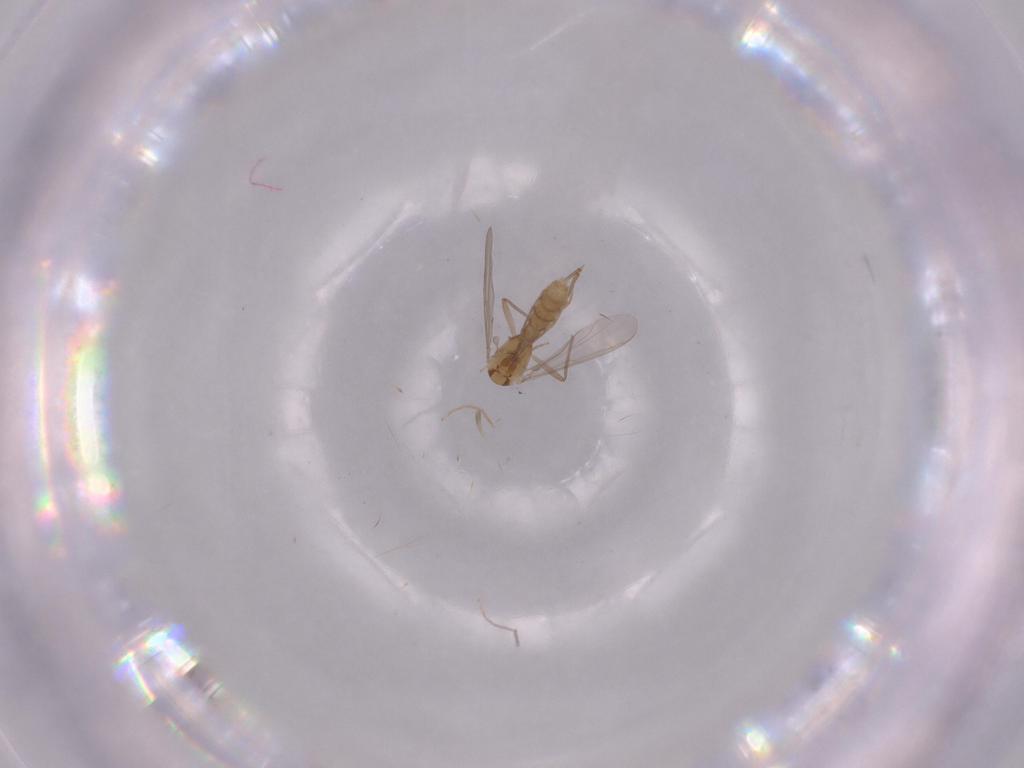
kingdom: Animalia
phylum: Arthropoda
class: Insecta
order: Diptera
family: Chironomidae
